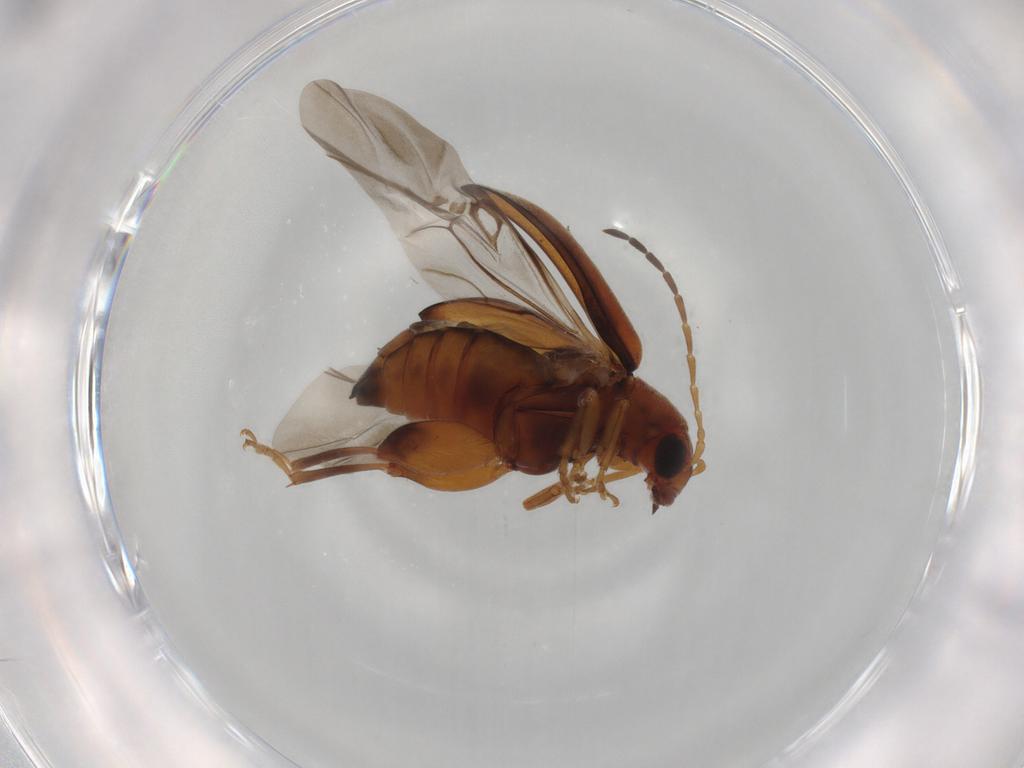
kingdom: Animalia
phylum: Arthropoda
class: Insecta
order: Coleoptera
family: Chrysomelidae
